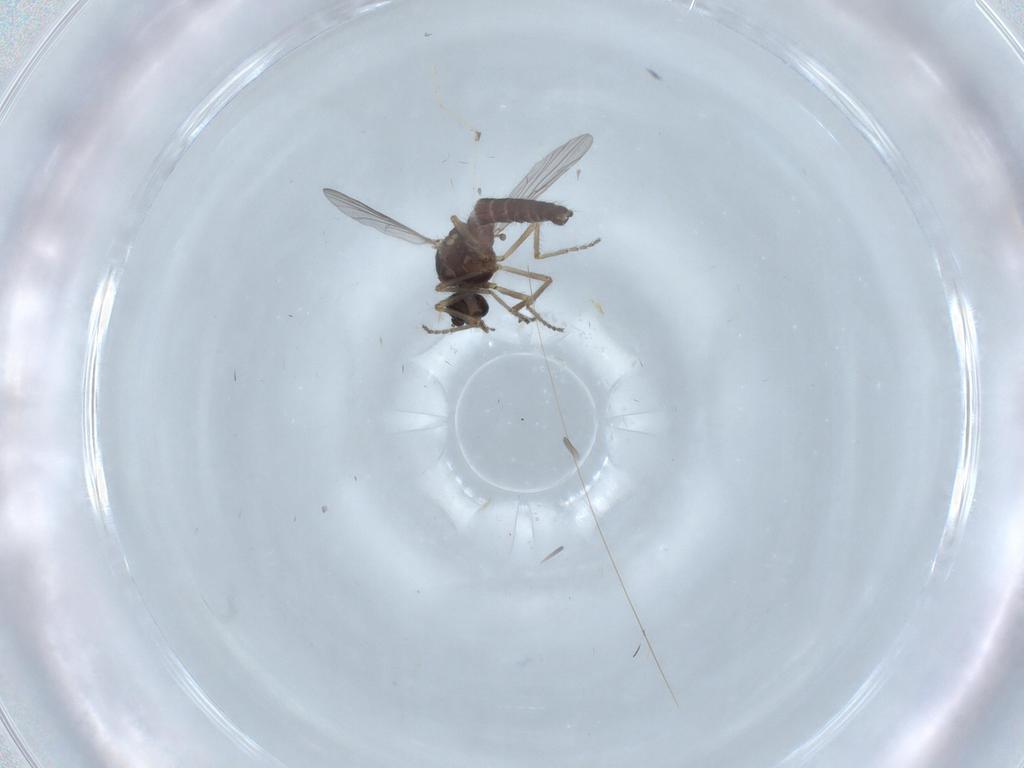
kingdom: Animalia
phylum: Arthropoda
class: Insecta
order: Diptera
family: Ceratopogonidae
